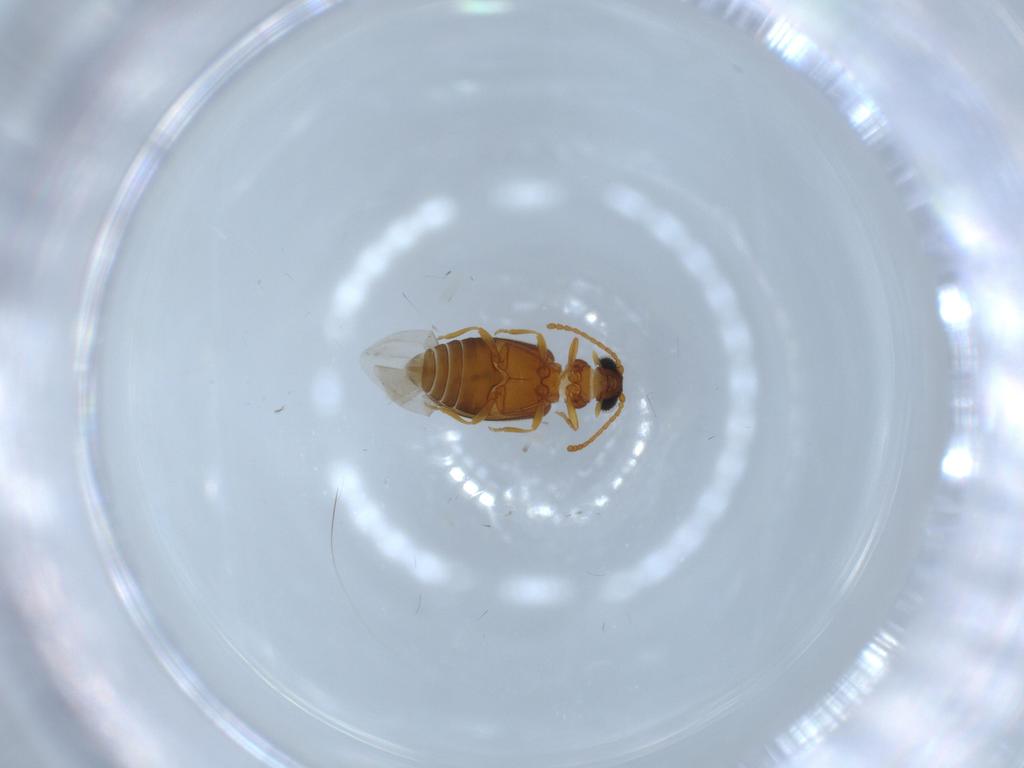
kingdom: Animalia
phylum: Arthropoda
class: Insecta
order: Coleoptera
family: Aderidae
